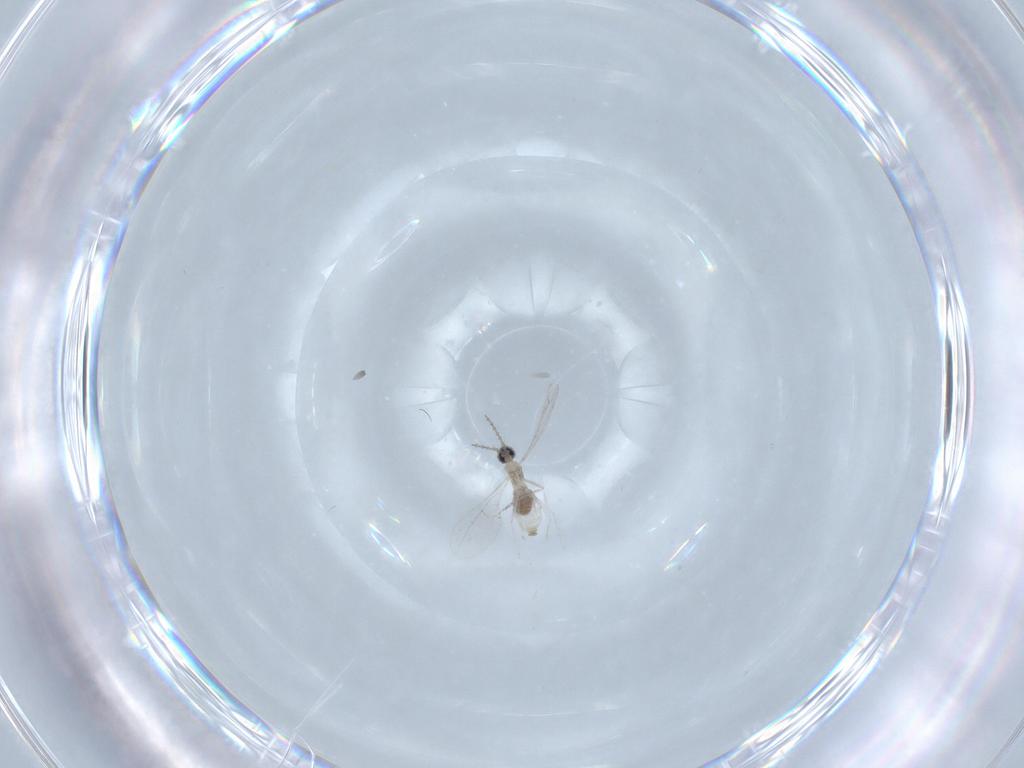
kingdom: Animalia
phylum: Arthropoda
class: Insecta
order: Diptera
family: Cecidomyiidae
